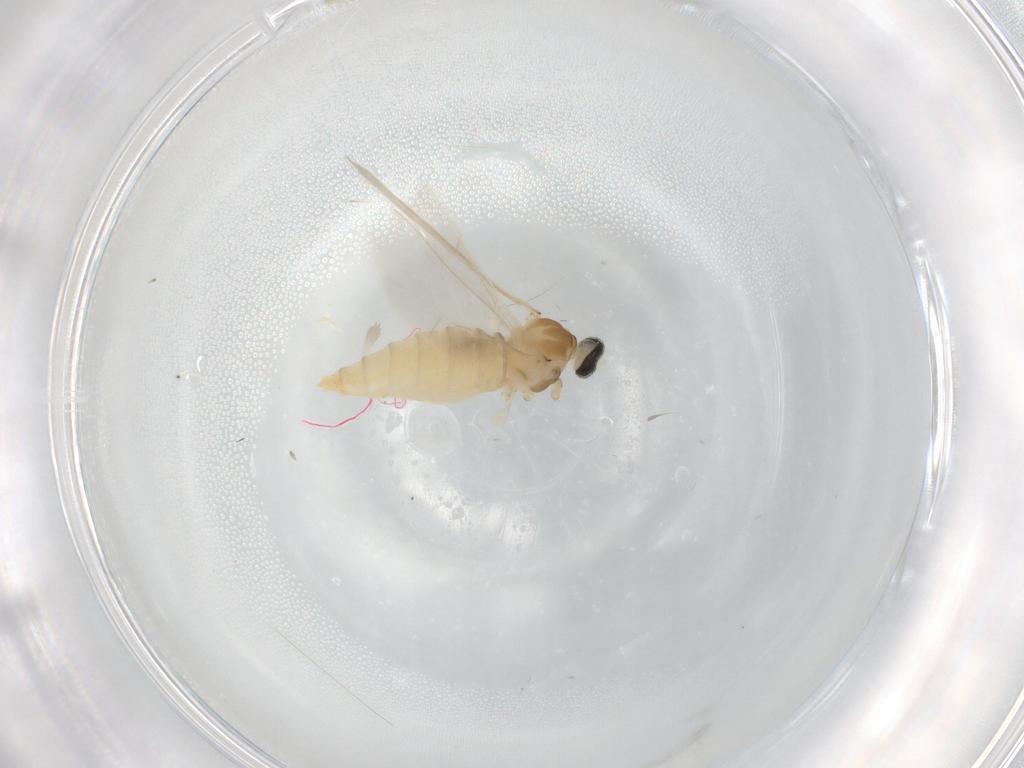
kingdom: Animalia
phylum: Arthropoda
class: Insecta
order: Diptera
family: Cecidomyiidae
